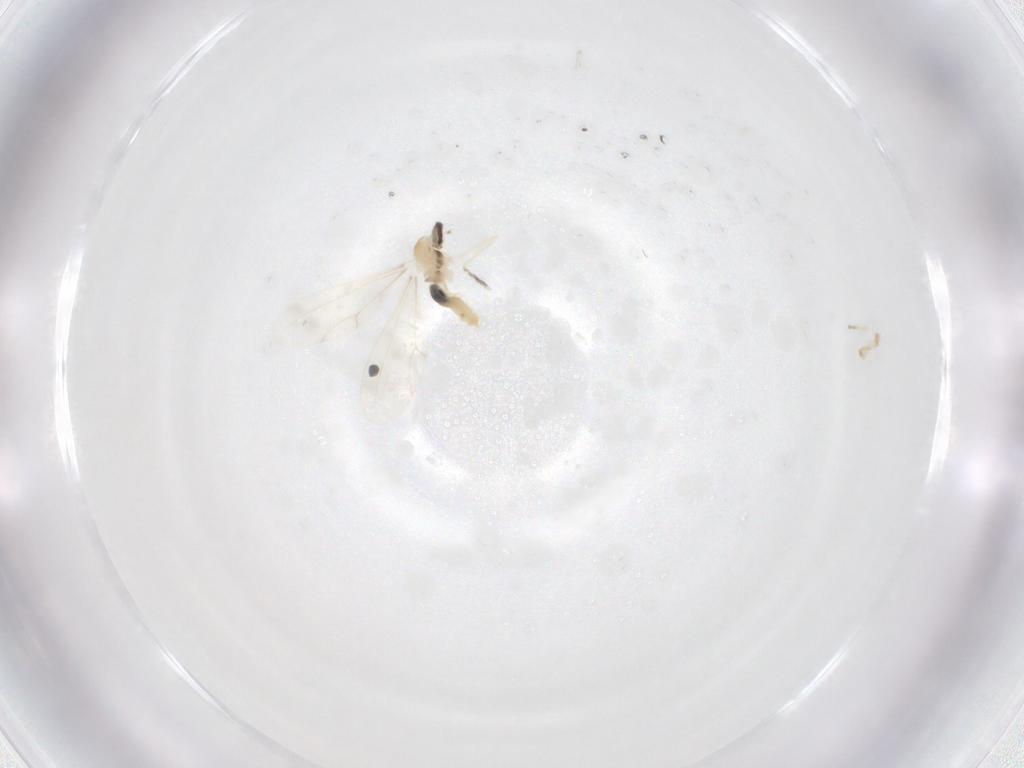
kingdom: Animalia
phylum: Arthropoda
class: Insecta
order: Diptera
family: Cecidomyiidae
